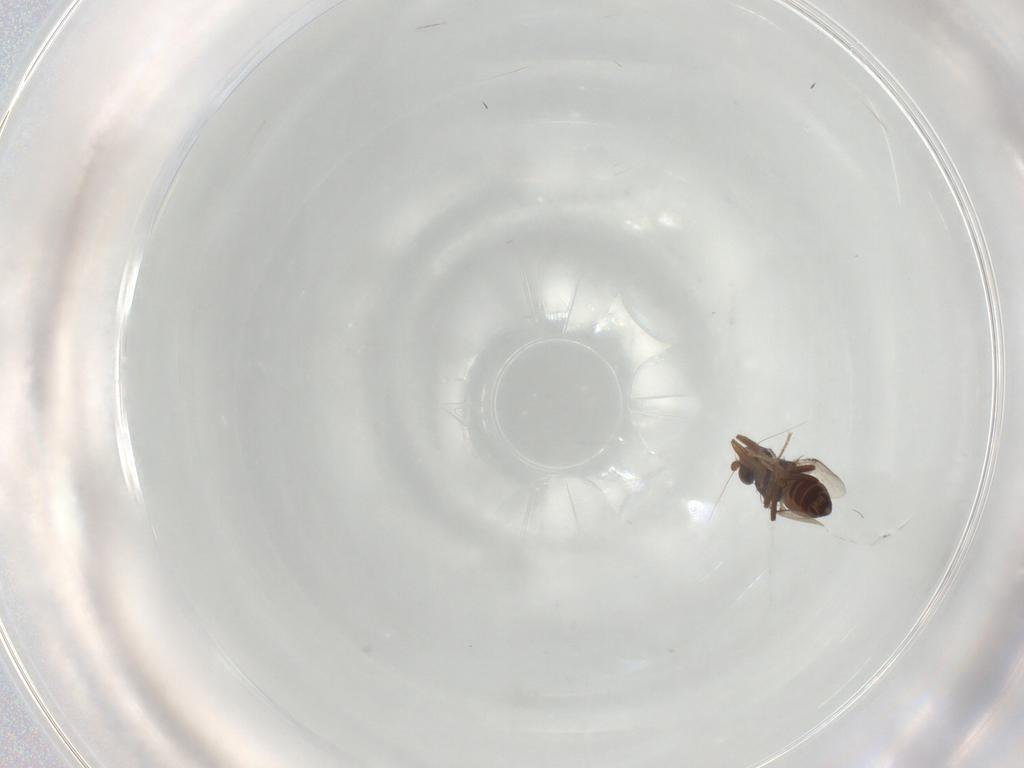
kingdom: Animalia
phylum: Arthropoda
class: Insecta
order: Diptera
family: Sphaeroceridae
